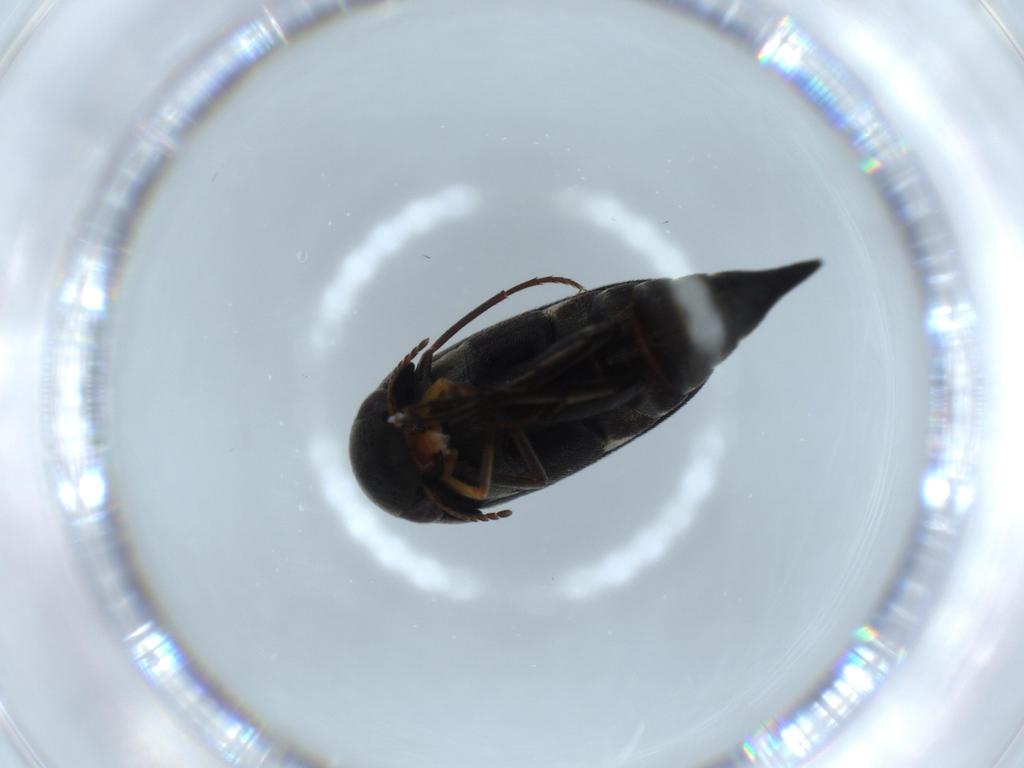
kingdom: Animalia
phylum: Arthropoda
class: Insecta
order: Coleoptera
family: Mordellidae
